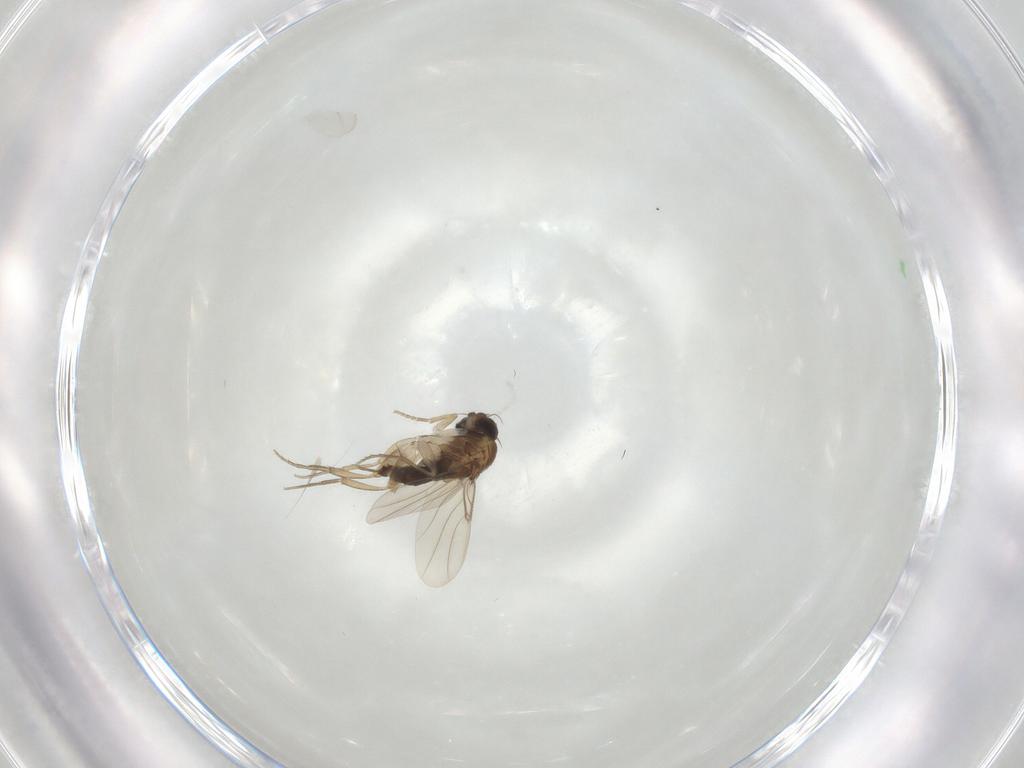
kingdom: Animalia
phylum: Arthropoda
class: Insecta
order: Diptera
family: Phoridae
